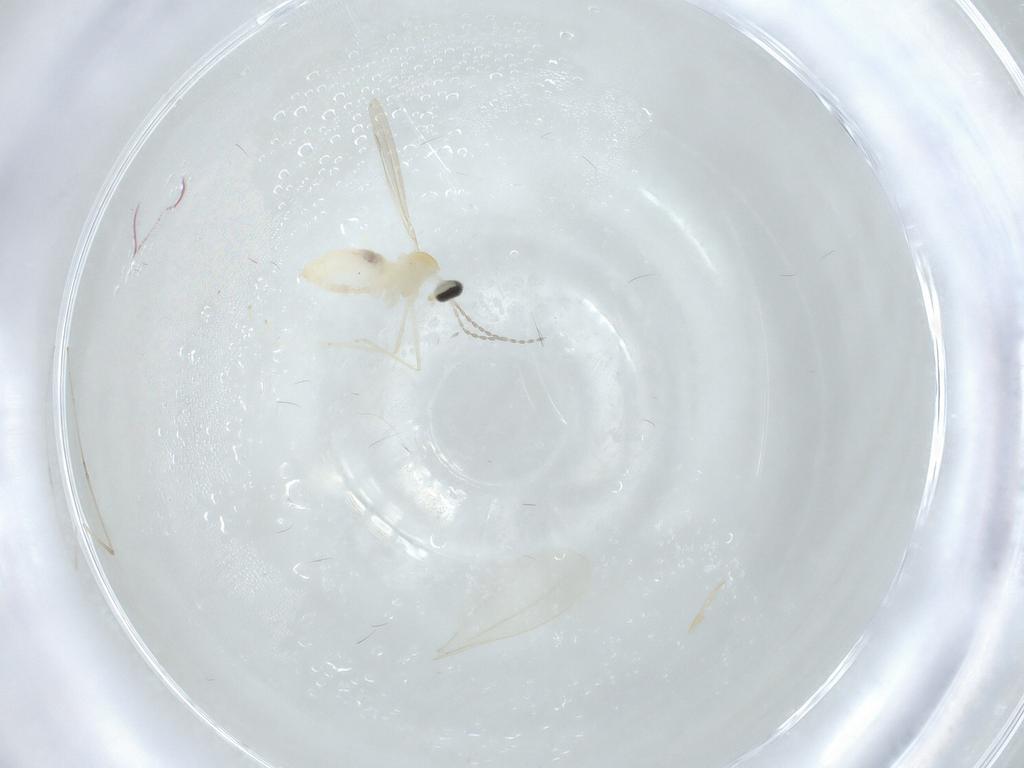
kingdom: Animalia
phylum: Arthropoda
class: Insecta
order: Diptera
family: Cecidomyiidae
